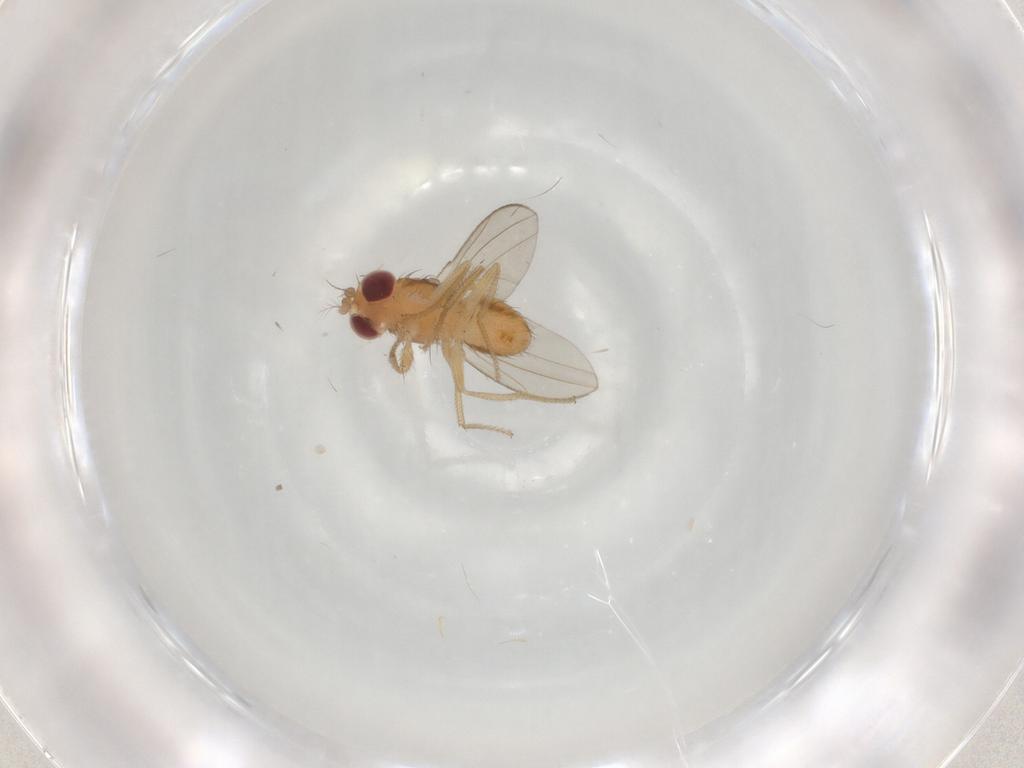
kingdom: Animalia
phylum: Arthropoda
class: Insecta
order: Diptera
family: Drosophilidae
